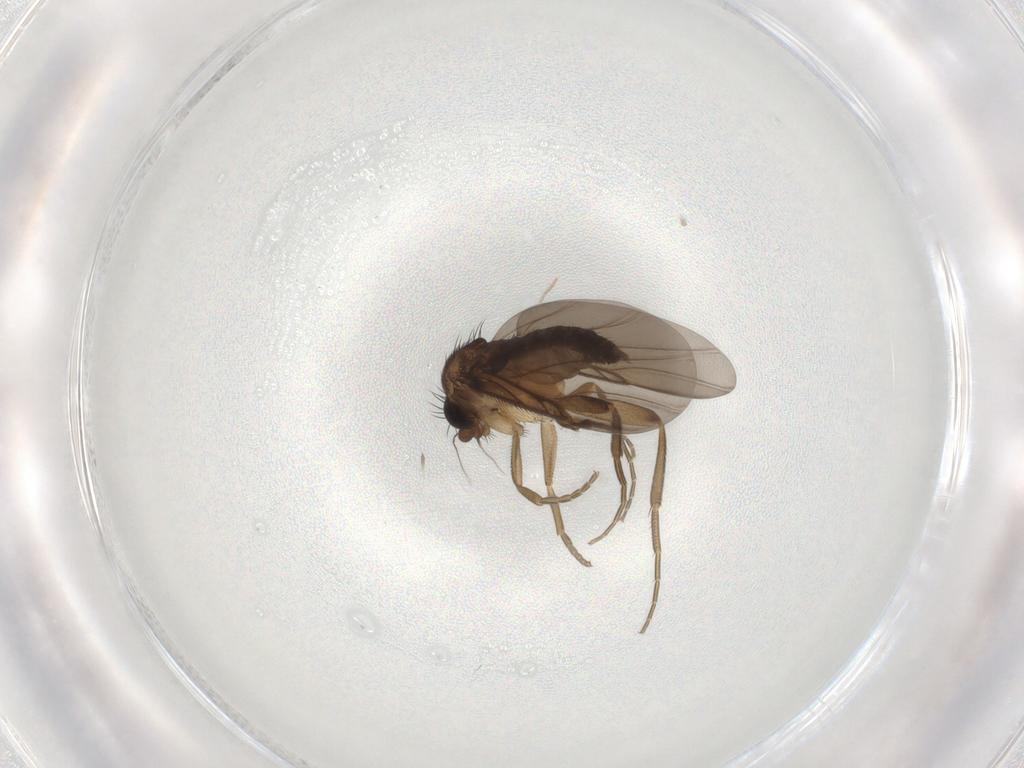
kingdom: Animalia
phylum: Arthropoda
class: Insecta
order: Diptera
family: Phoridae
